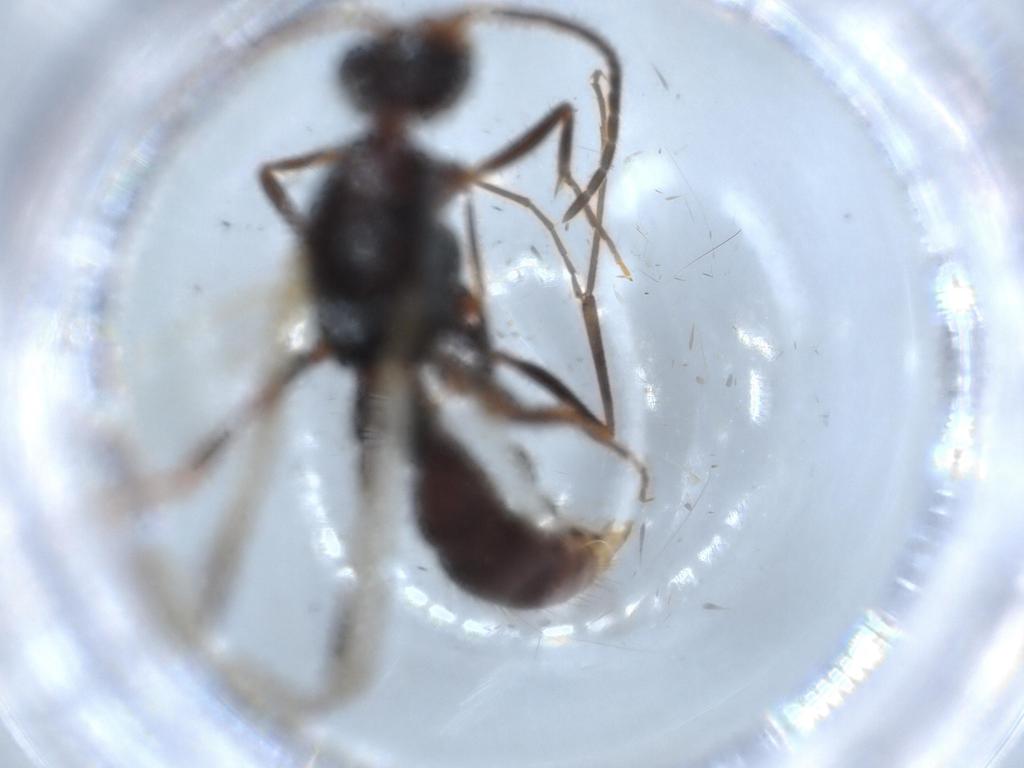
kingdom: Animalia
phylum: Arthropoda
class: Insecta
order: Hymenoptera
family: Formicidae
